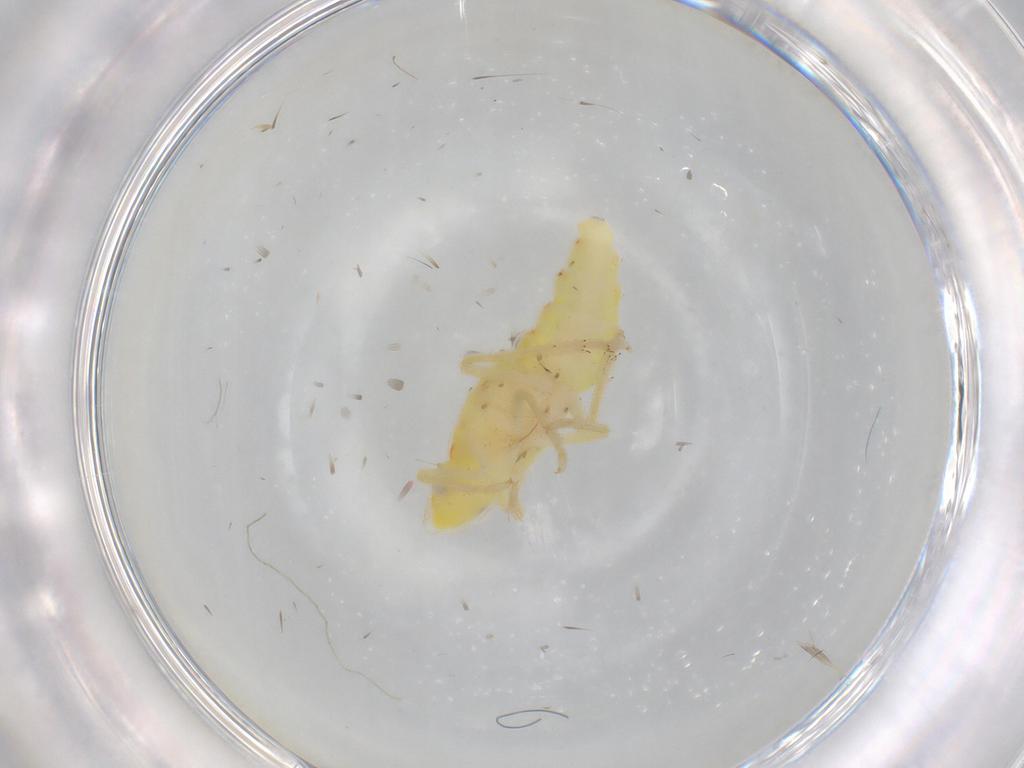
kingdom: Animalia
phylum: Arthropoda
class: Insecta
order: Hemiptera
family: Tropiduchidae
